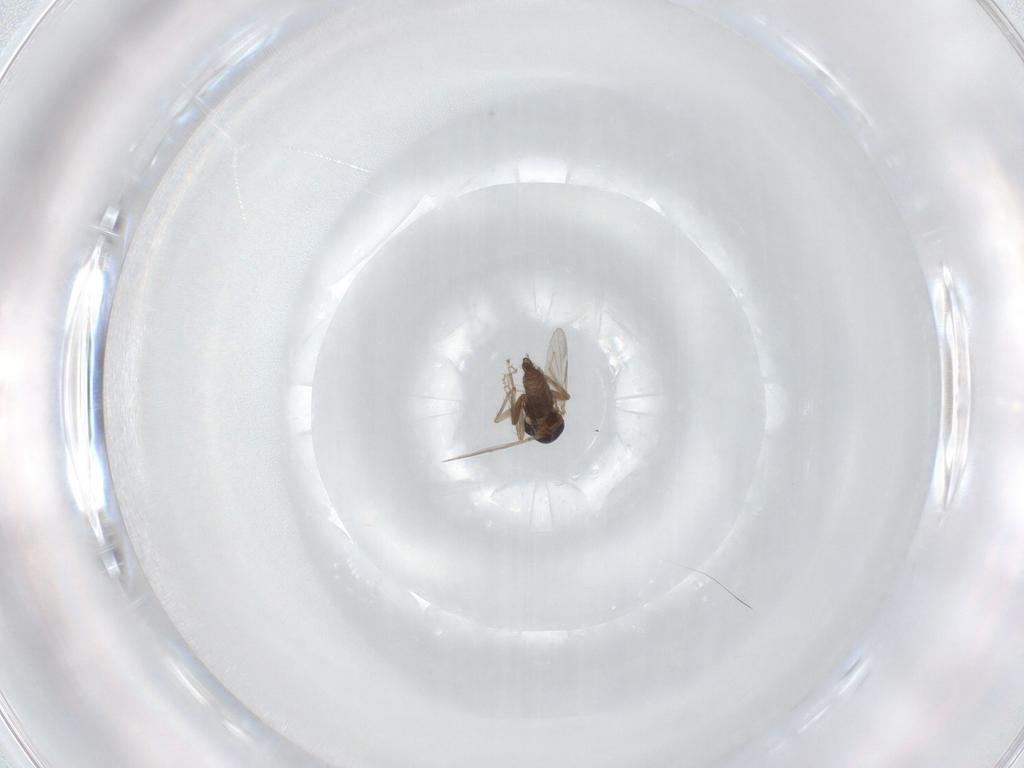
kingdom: Animalia
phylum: Arthropoda
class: Insecta
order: Diptera
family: Ceratopogonidae
